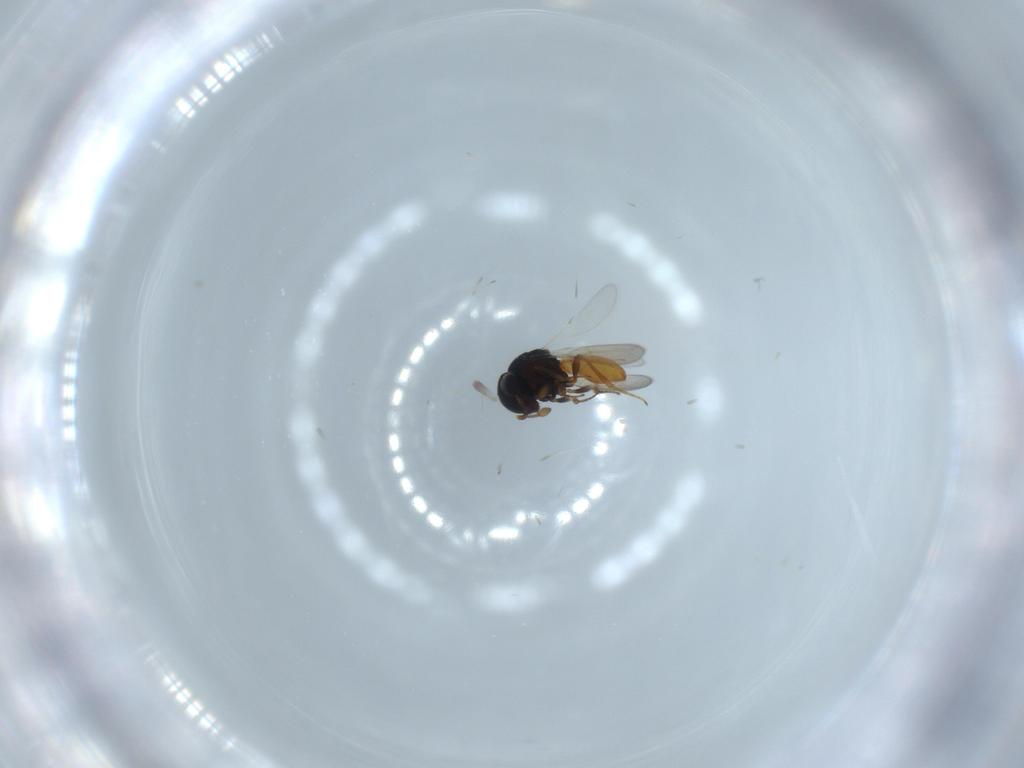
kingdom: Animalia
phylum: Arthropoda
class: Insecta
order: Hymenoptera
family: Scelionidae
